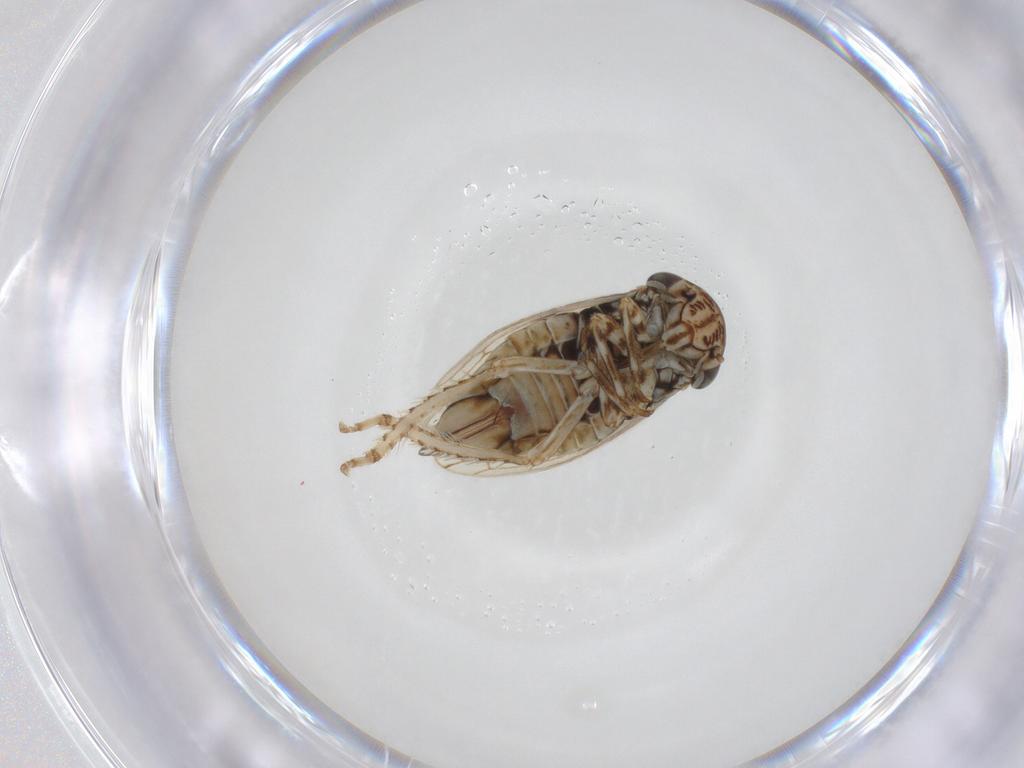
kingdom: Animalia
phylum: Arthropoda
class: Insecta
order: Hemiptera
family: Cicadellidae
